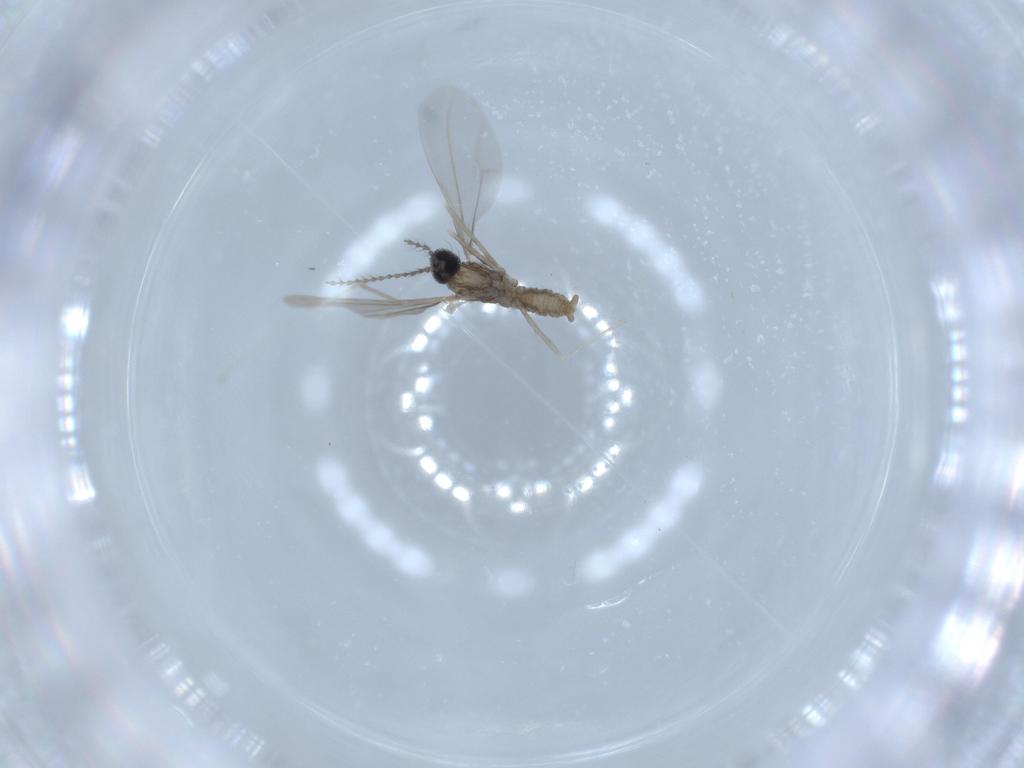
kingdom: Animalia
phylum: Arthropoda
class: Insecta
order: Diptera
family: Cecidomyiidae
